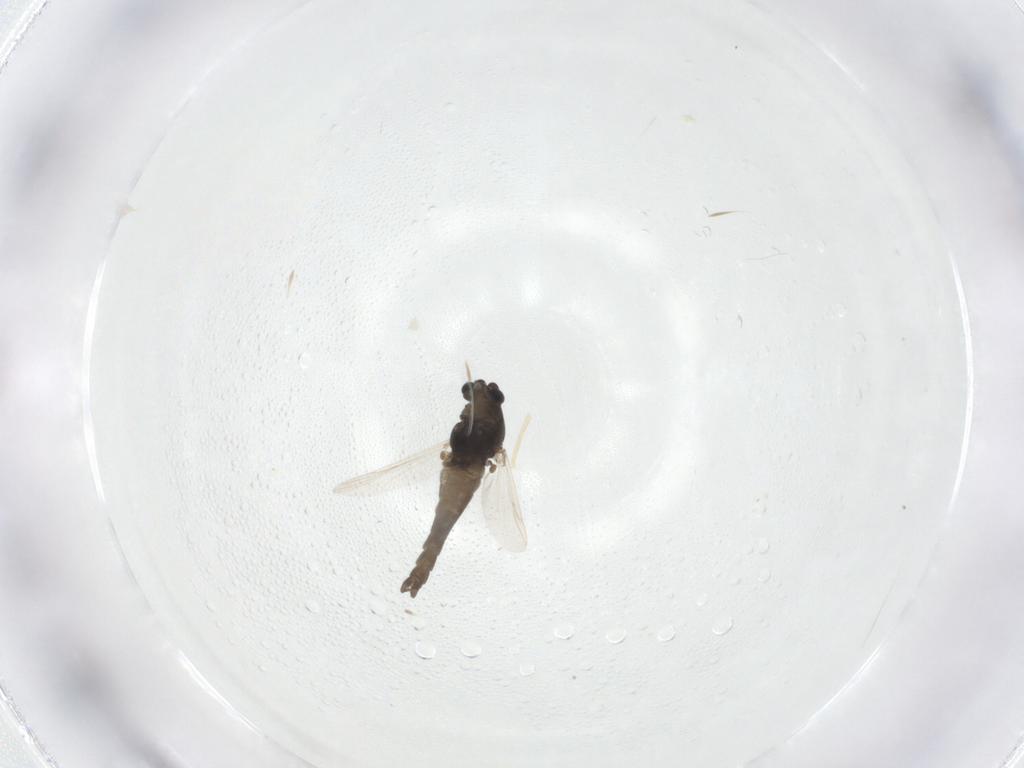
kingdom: Animalia
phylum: Arthropoda
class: Insecta
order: Diptera
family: Chironomidae
